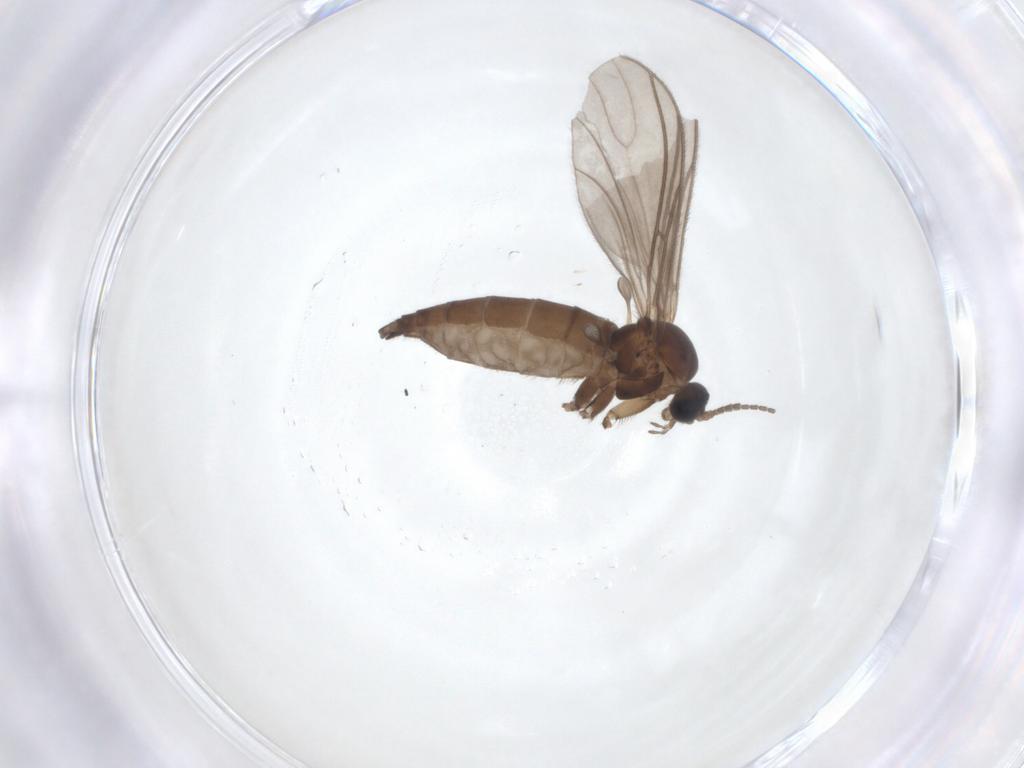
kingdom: Animalia
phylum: Arthropoda
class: Insecta
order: Diptera
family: Sciaridae
